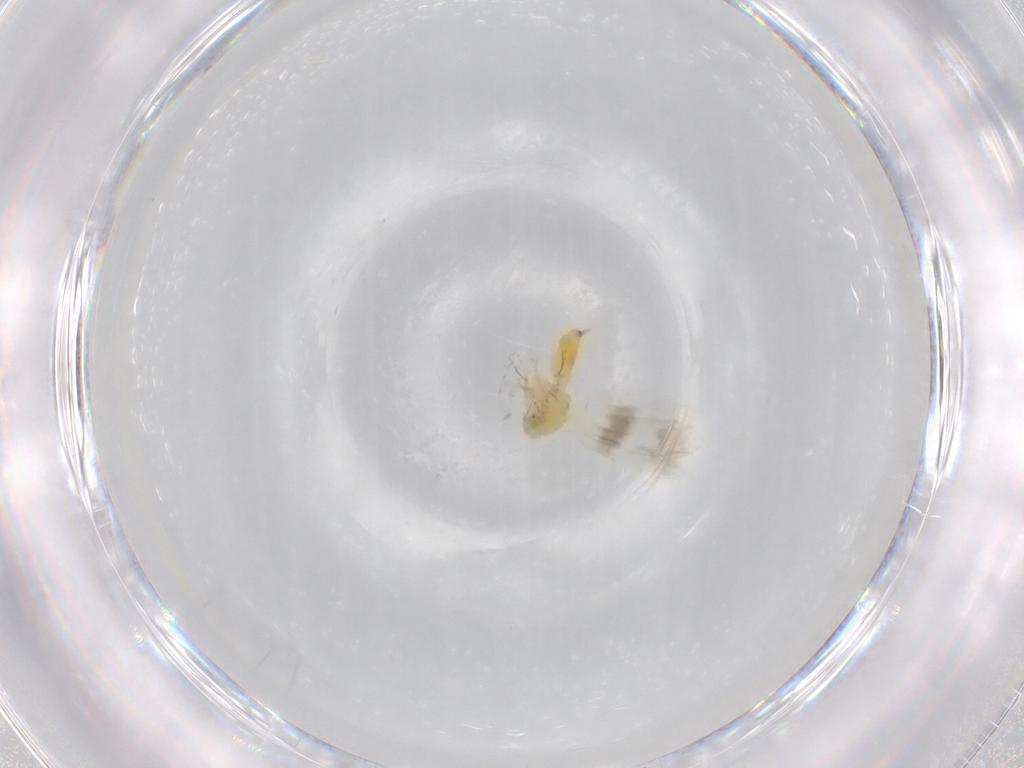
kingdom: Animalia
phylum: Arthropoda
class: Insecta
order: Hemiptera
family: Aleyrodidae
